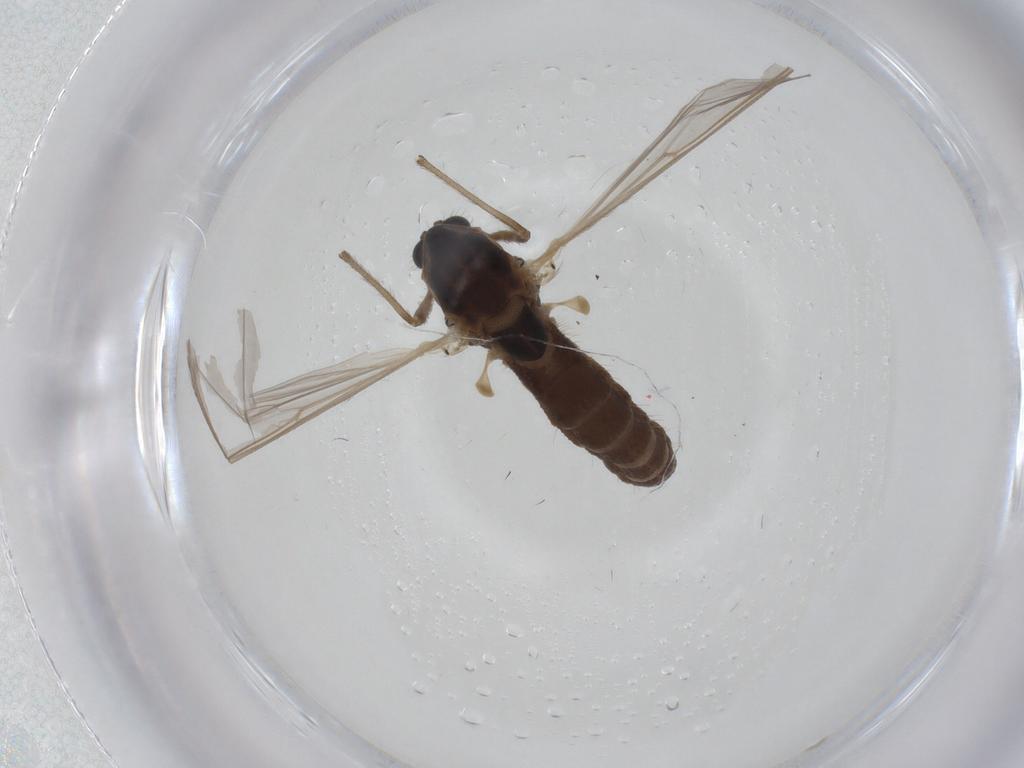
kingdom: Animalia
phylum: Arthropoda
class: Insecta
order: Diptera
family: Chironomidae
